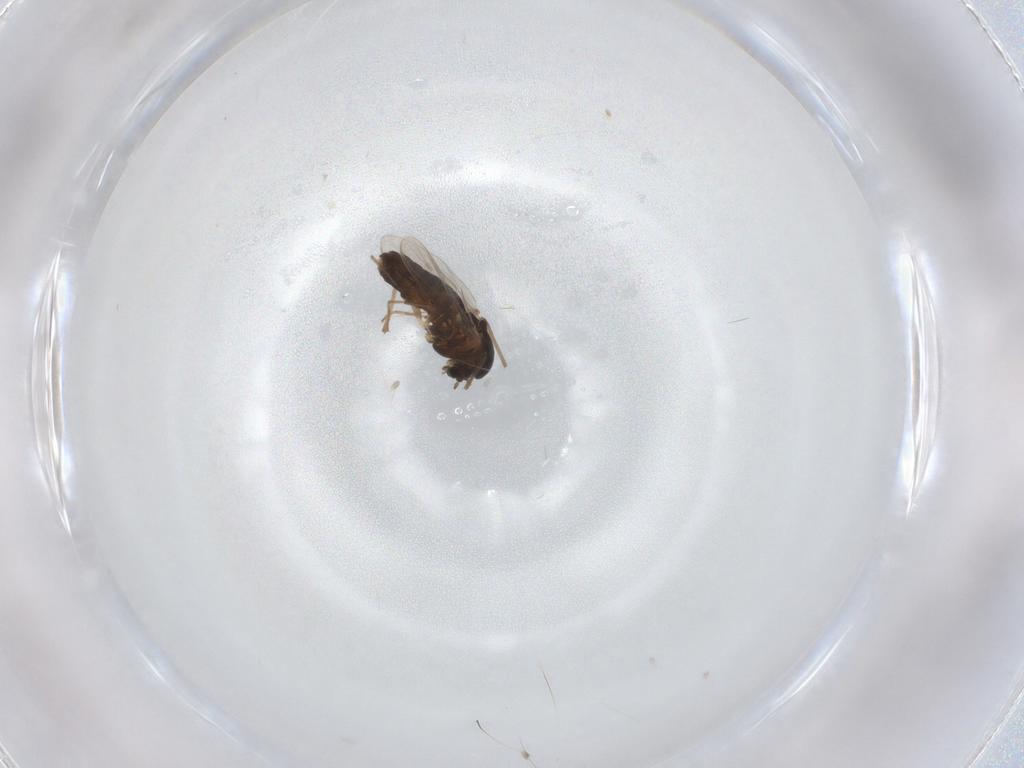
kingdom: Animalia
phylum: Arthropoda
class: Insecta
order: Diptera
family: Chironomidae
